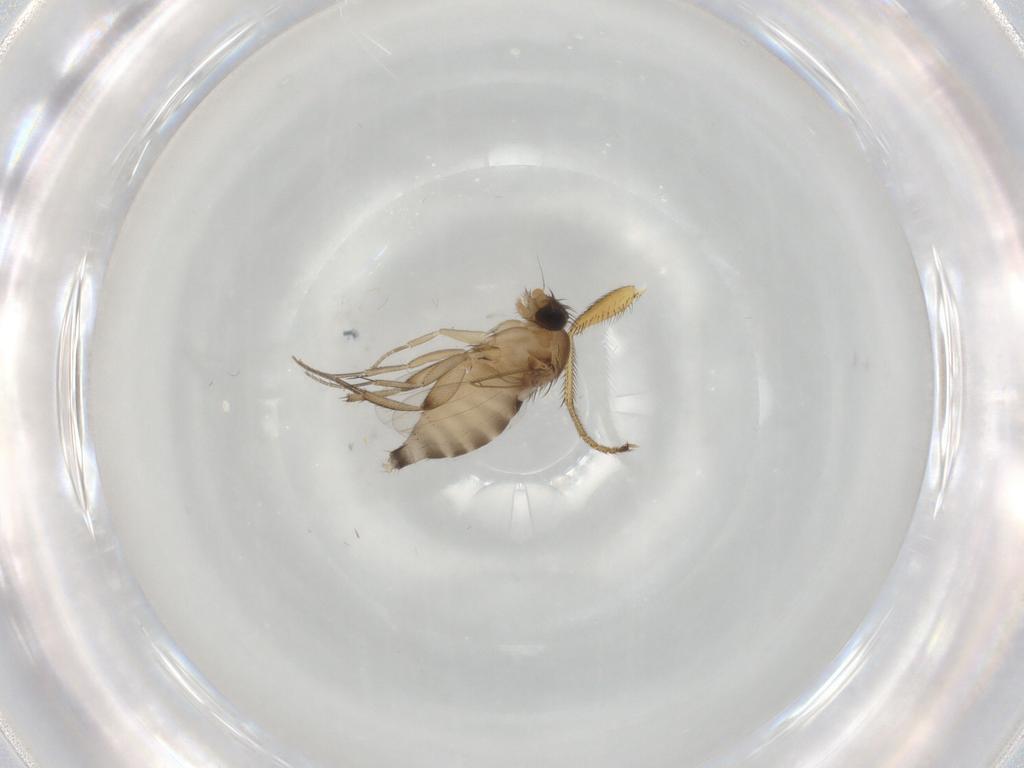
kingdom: Animalia
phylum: Arthropoda
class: Insecta
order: Diptera
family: Phoridae
